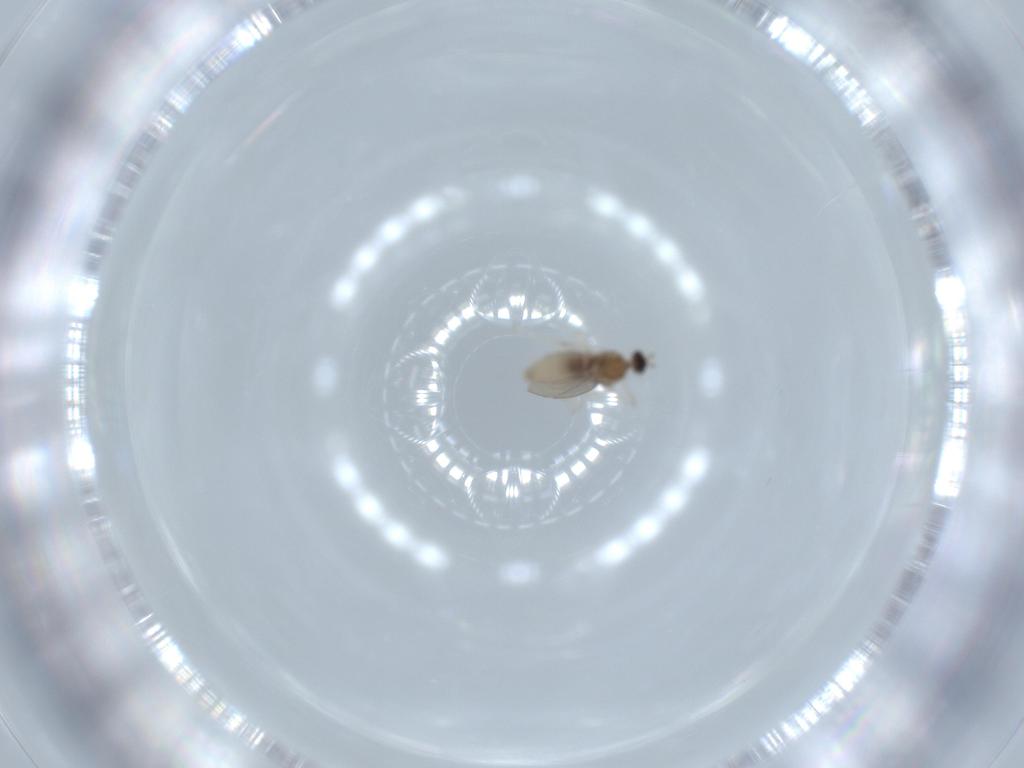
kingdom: Animalia
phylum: Arthropoda
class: Insecta
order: Diptera
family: Cecidomyiidae
